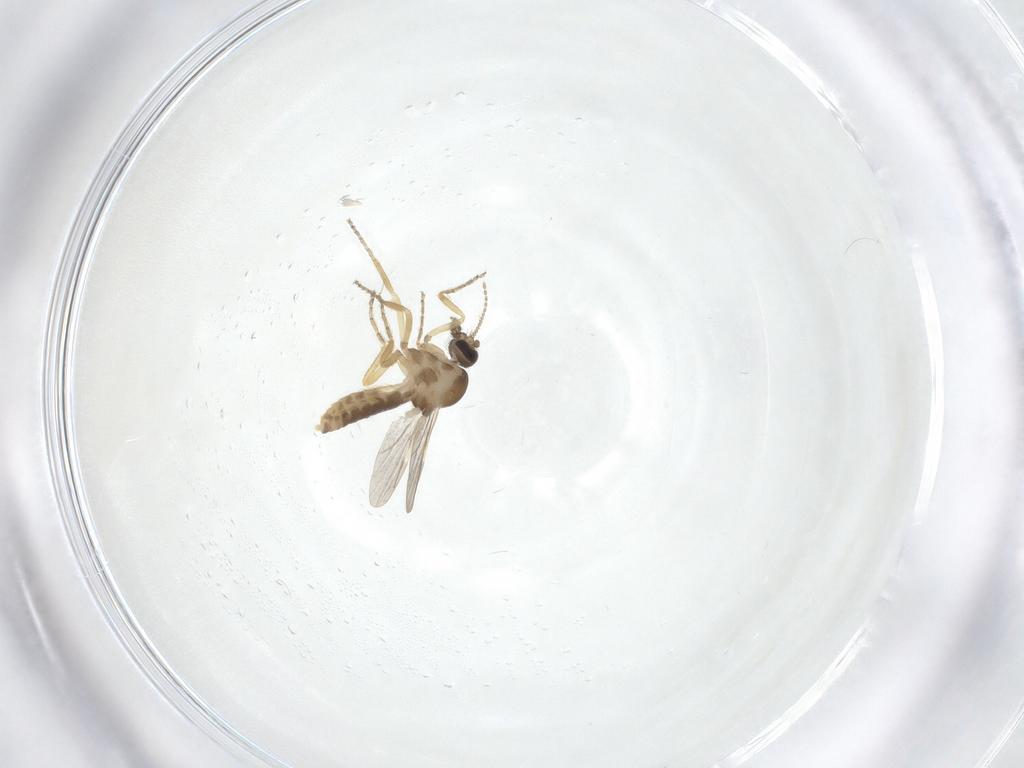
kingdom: Animalia
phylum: Arthropoda
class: Insecta
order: Diptera
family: Ceratopogonidae
